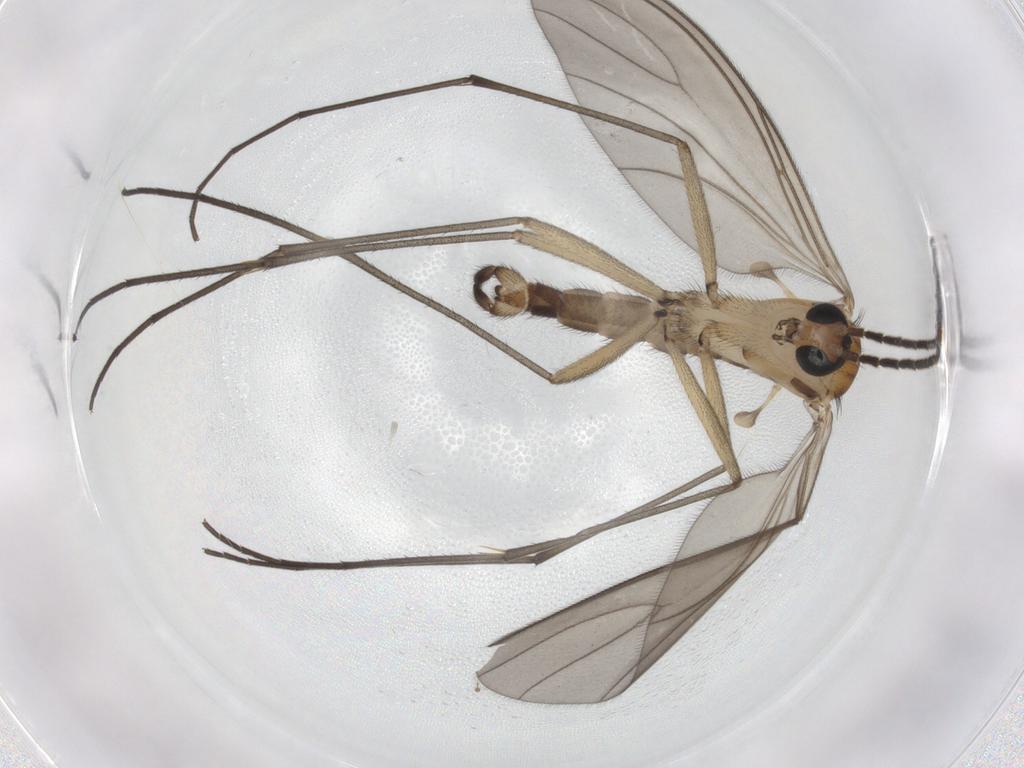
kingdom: Animalia
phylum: Arthropoda
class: Insecta
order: Diptera
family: Sciaridae
